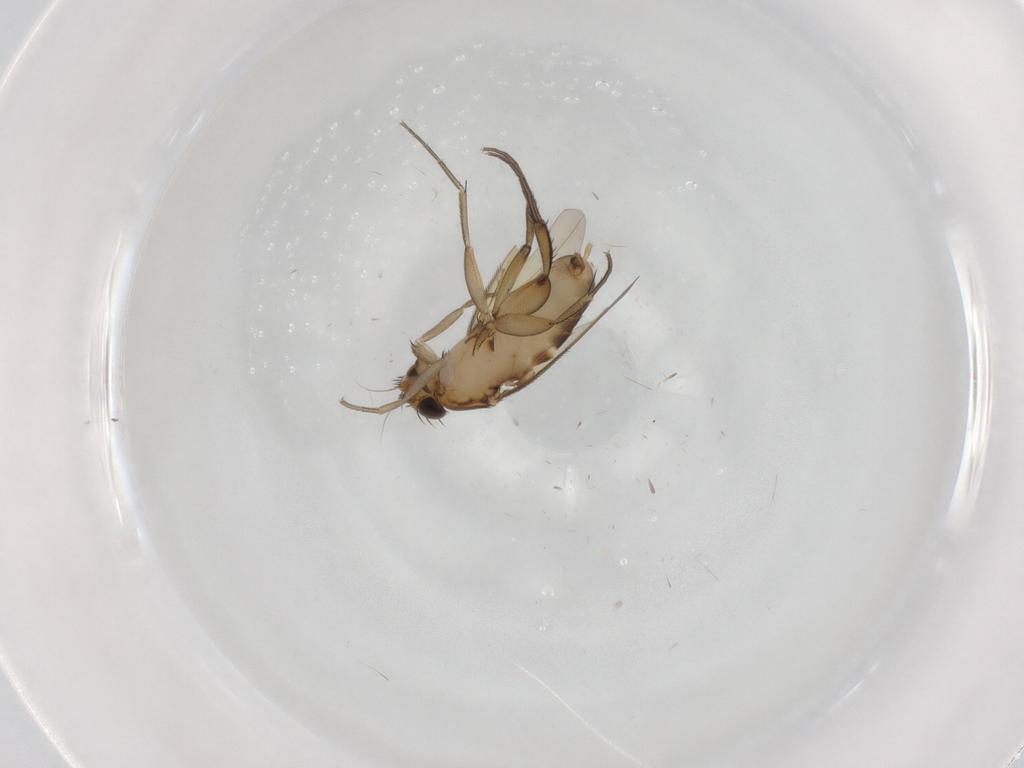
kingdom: Animalia
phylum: Arthropoda
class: Insecta
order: Diptera
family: Phoridae
